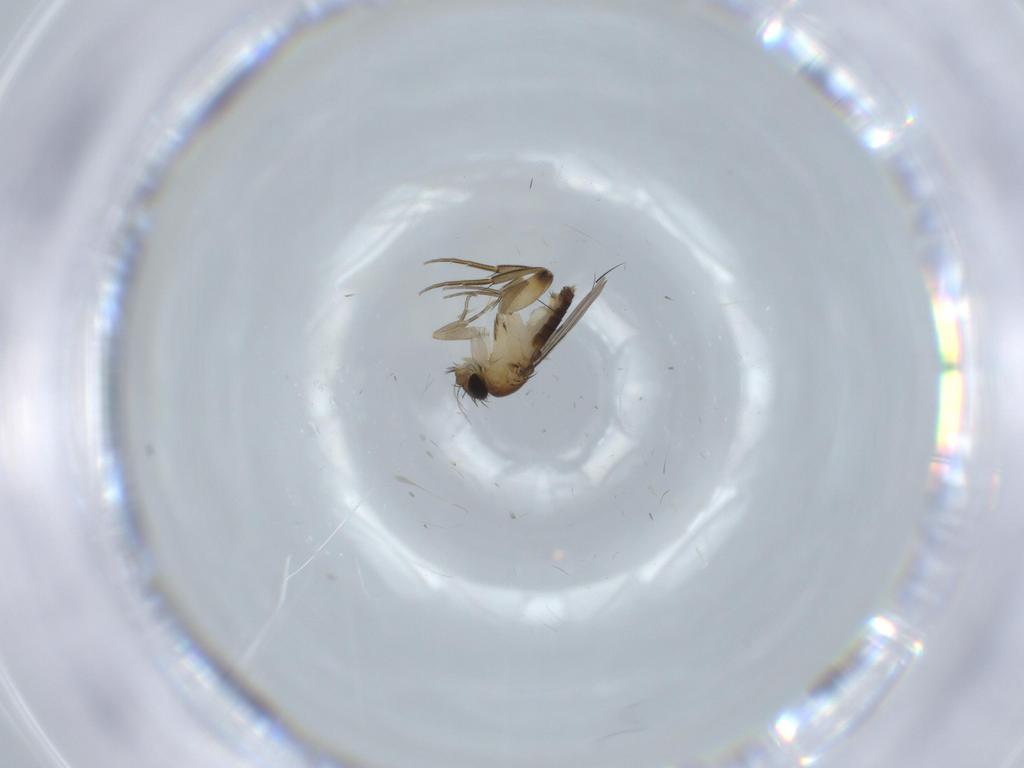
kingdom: Animalia
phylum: Arthropoda
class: Insecta
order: Diptera
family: Phoridae
